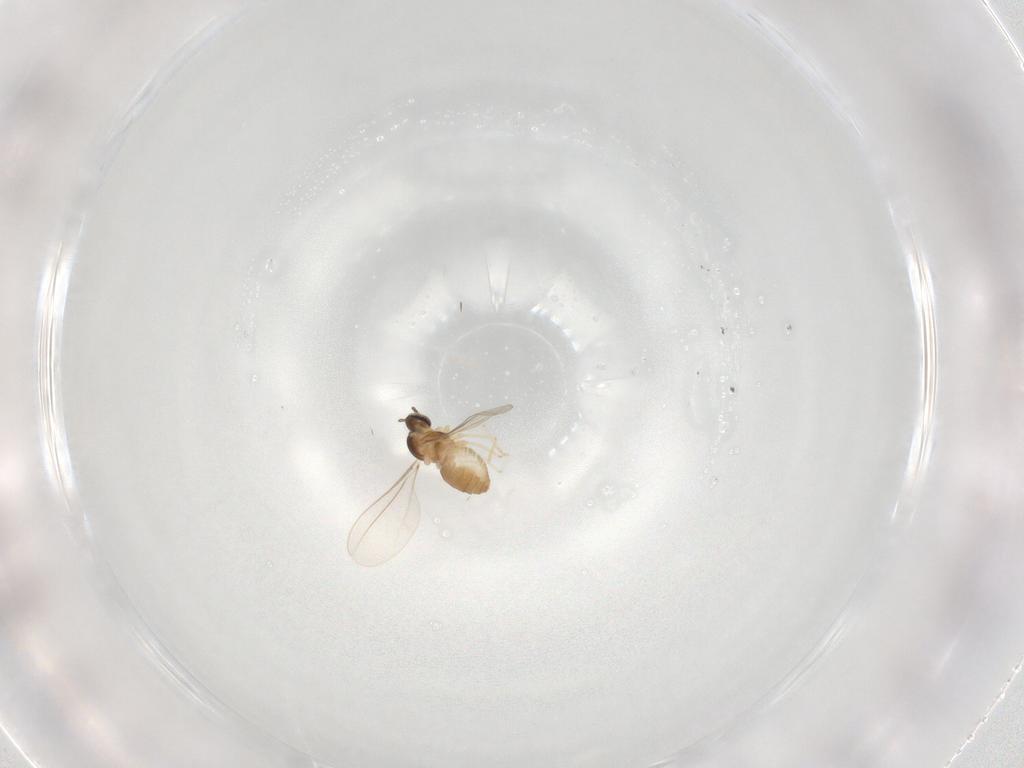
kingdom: Animalia
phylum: Arthropoda
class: Insecta
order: Diptera
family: Cecidomyiidae
